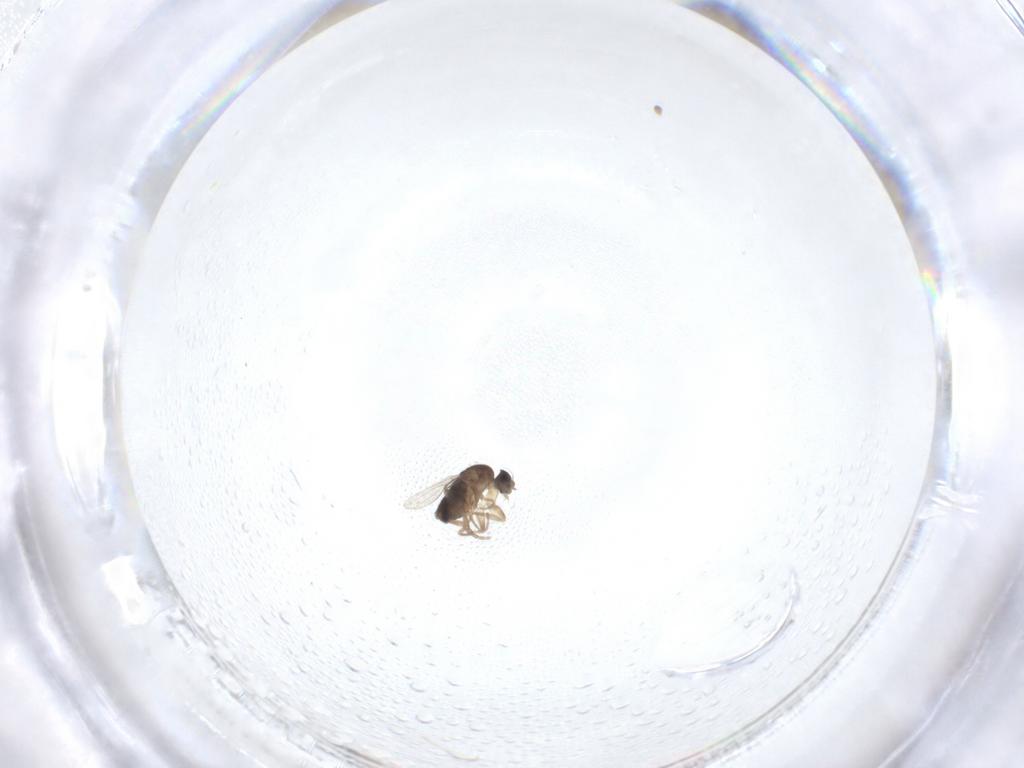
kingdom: Animalia
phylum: Arthropoda
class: Insecta
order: Diptera
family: Phoridae
